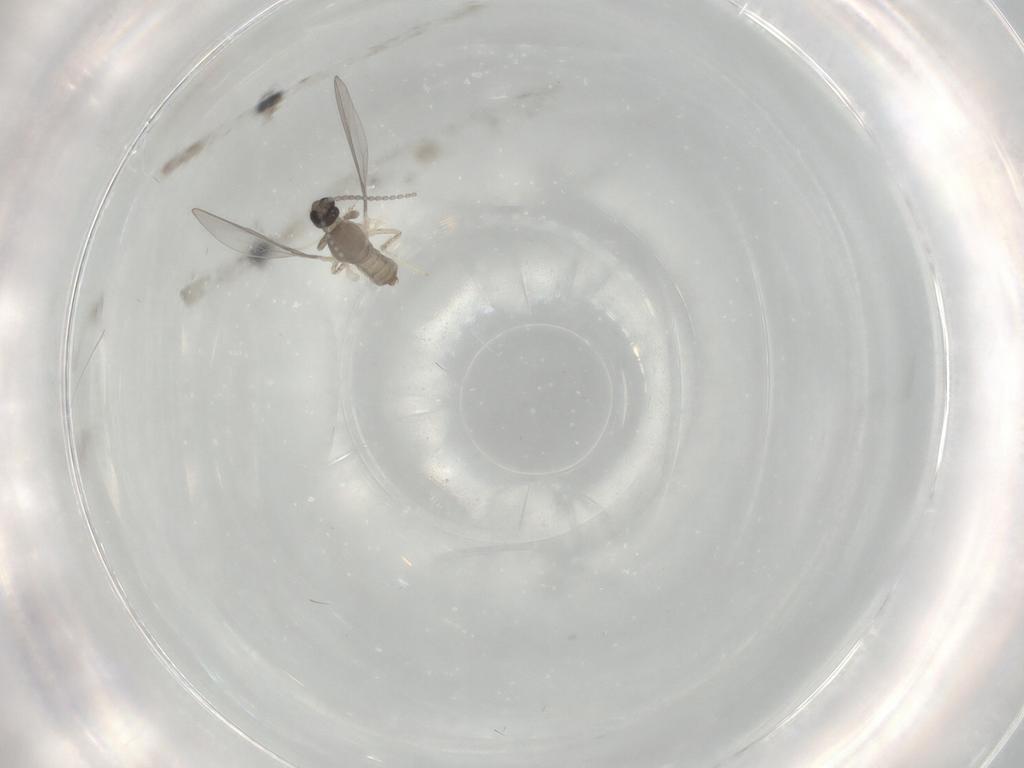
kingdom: Animalia
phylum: Arthropoda
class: Insecta
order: Diptera
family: Cecidomyiidae
